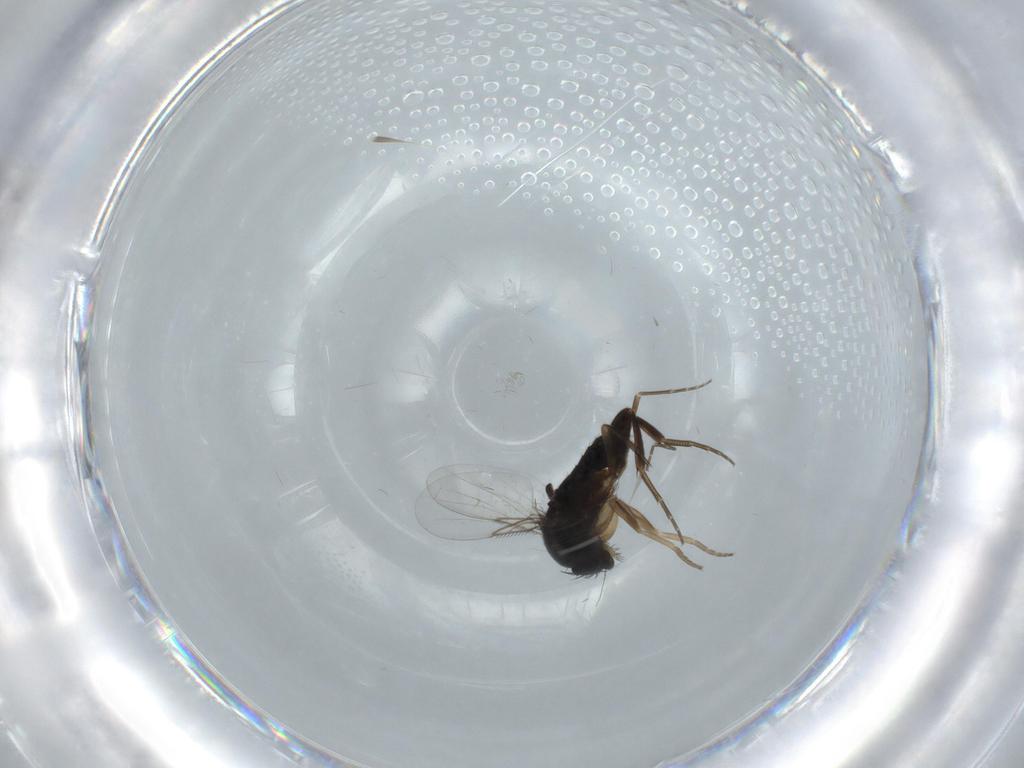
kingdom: Animalia
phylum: Arthropoda
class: Insecta
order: Diptera
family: Phoridae
